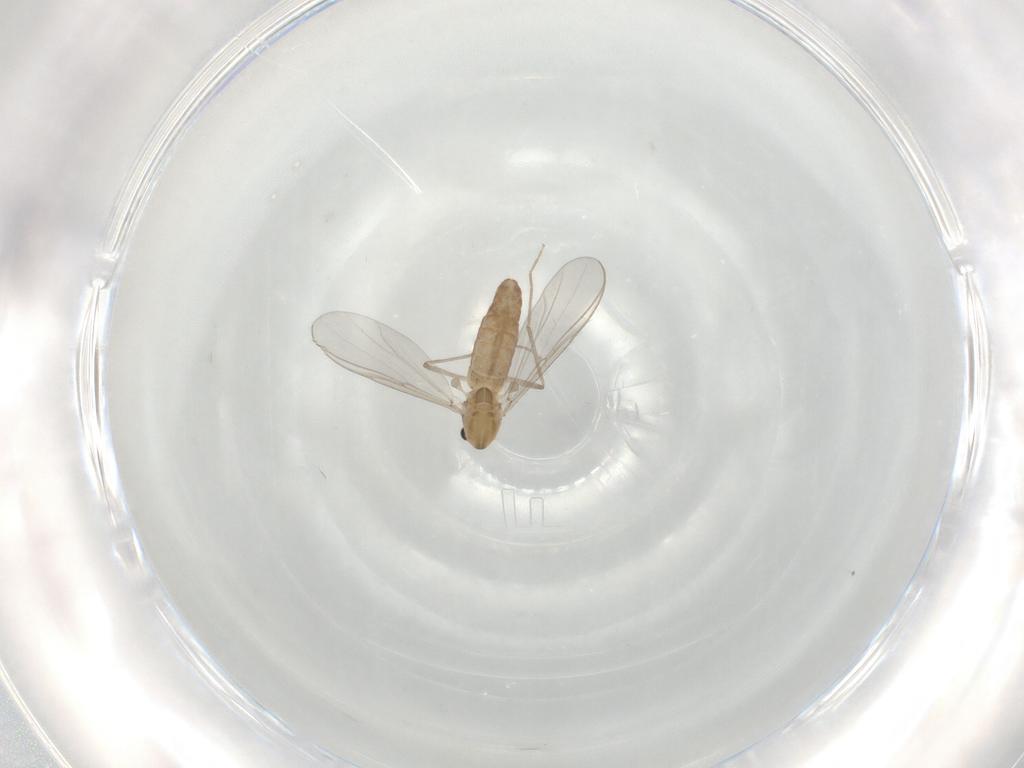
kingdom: Animalia
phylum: Arthropoda
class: Insecta
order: Diptera
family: Chironomidae
